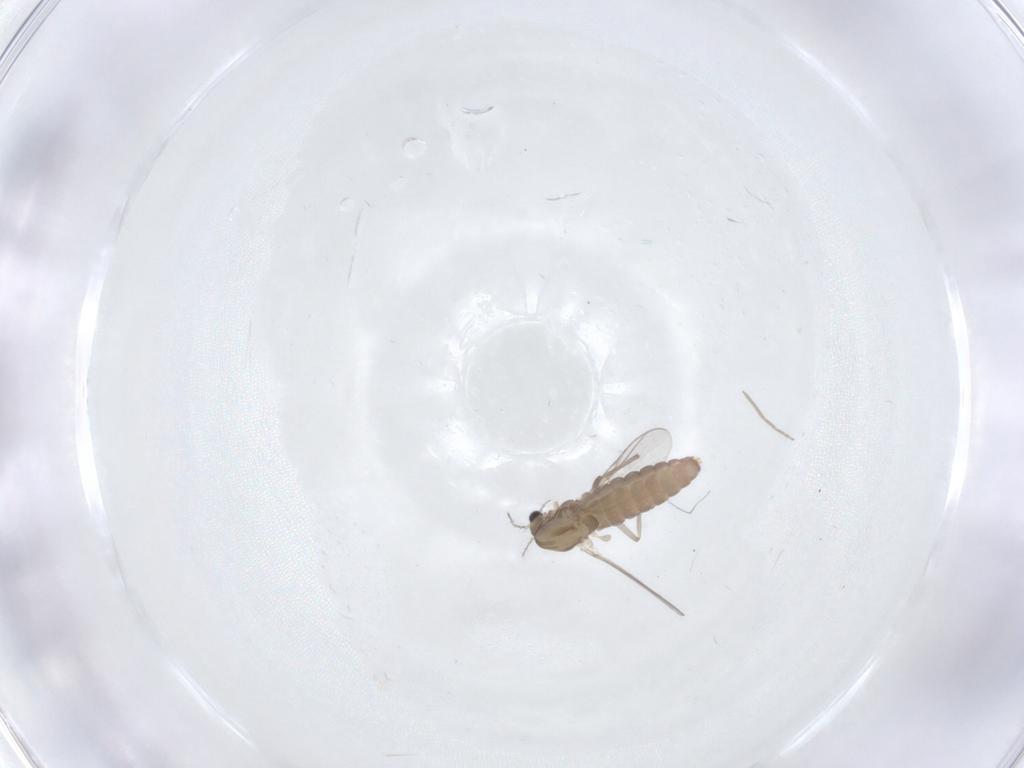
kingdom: Animalia
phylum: Arthropoda
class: Insecta
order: Diptera
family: Chironomidae
